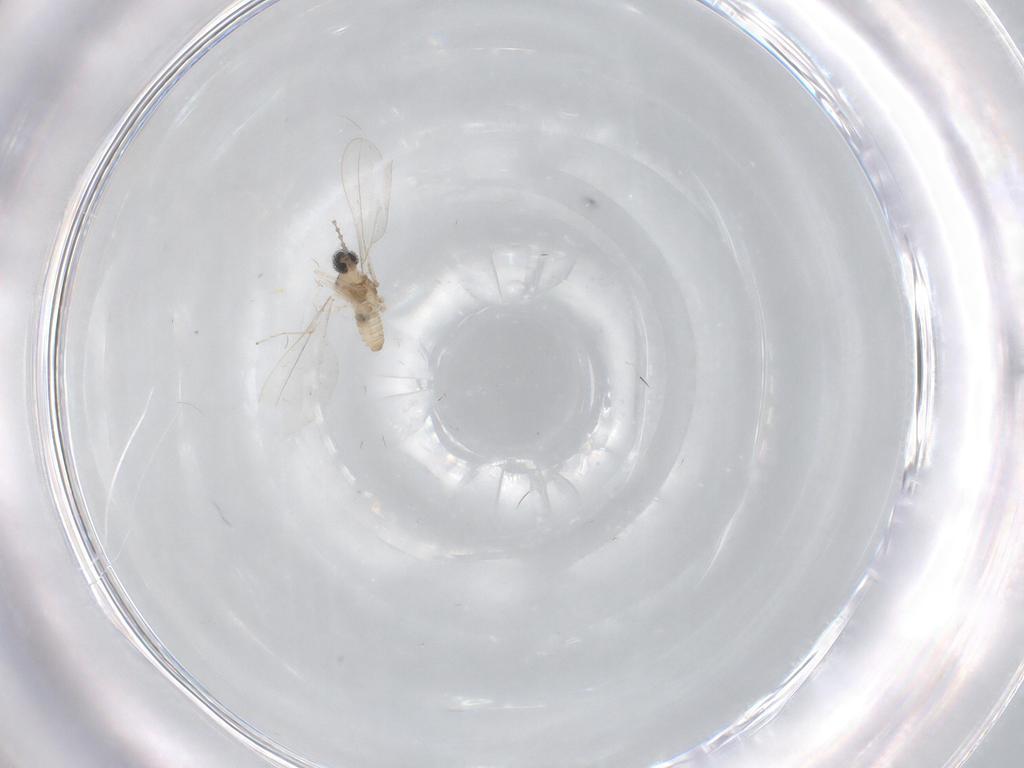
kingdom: Animalia
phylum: Arthropoda
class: Insecta
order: Diptera
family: Cecidomyiidae
